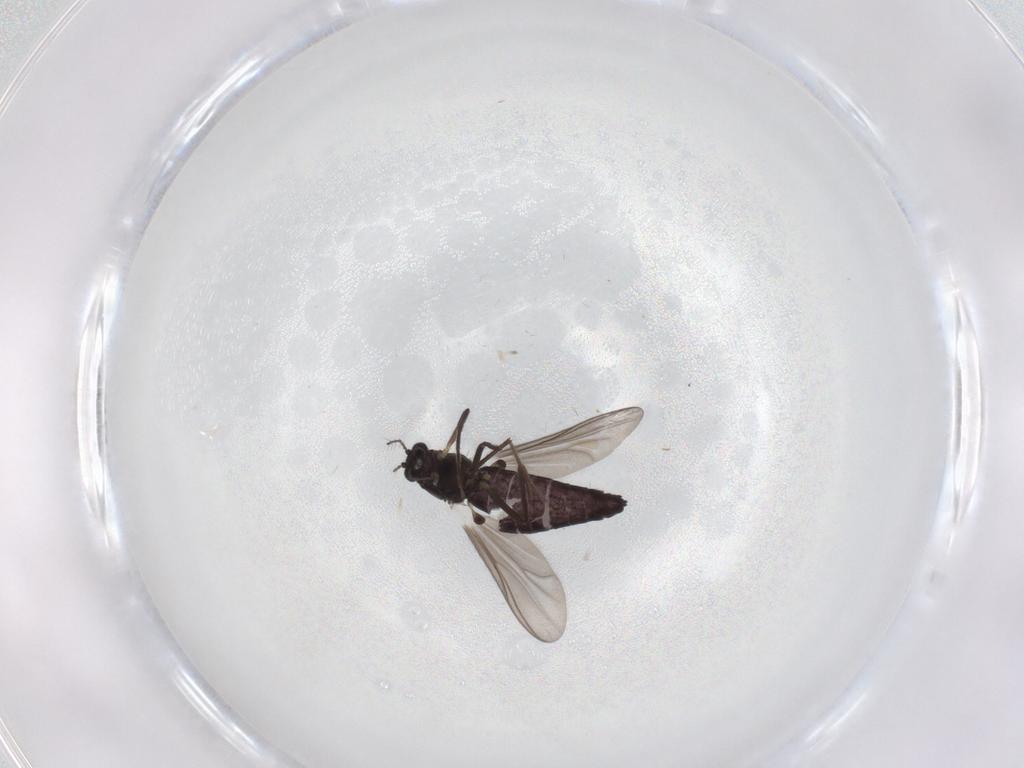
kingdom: Animalia
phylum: Arthropoda
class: Insecta
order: Diptera
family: Chironomidae
